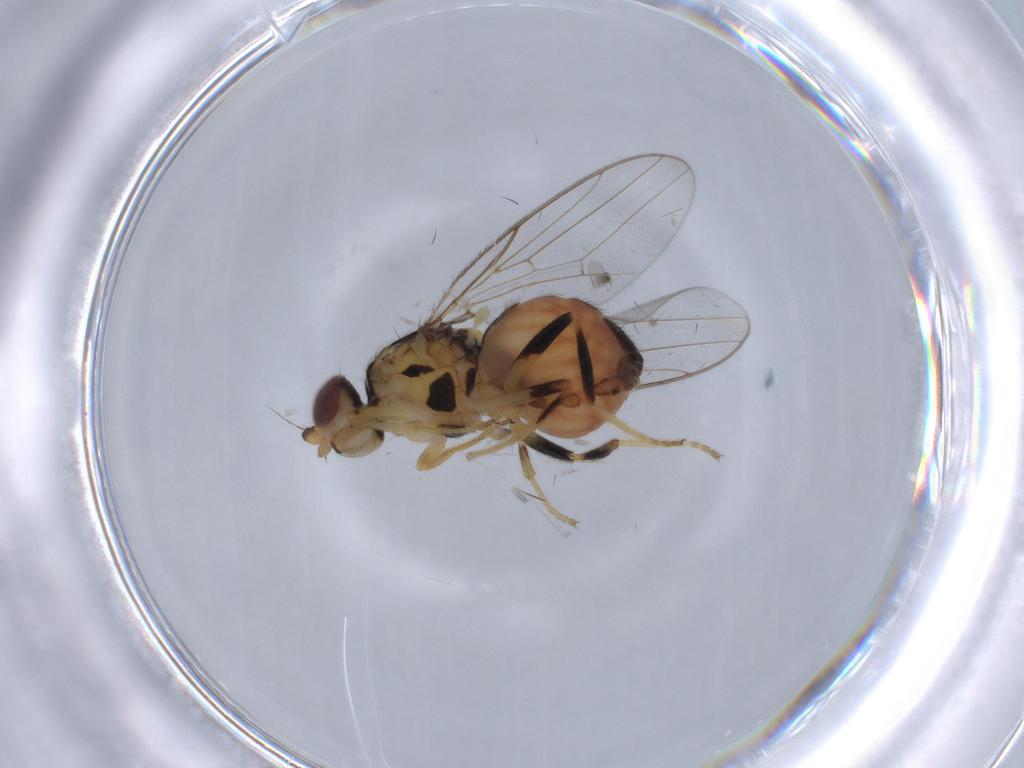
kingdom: Animalia
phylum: Arthropoda
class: Insecta
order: Diptera
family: Chloropidae
